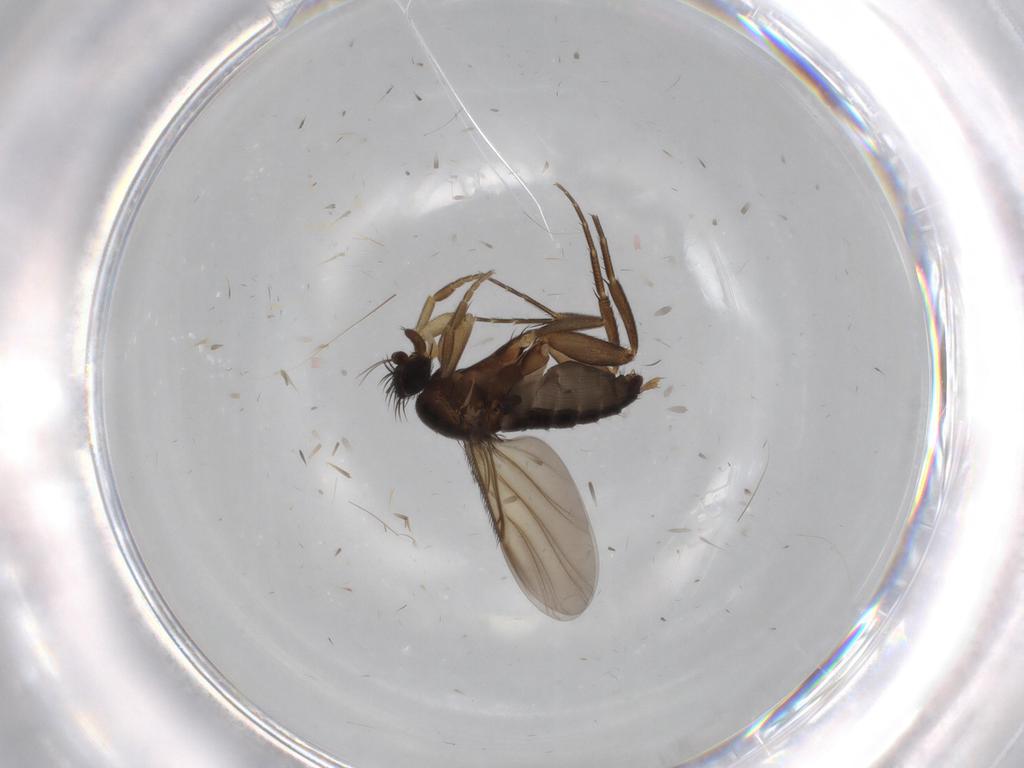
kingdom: Animalia
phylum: Arthropoda
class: Insecta
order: Diptera
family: Phoridae
